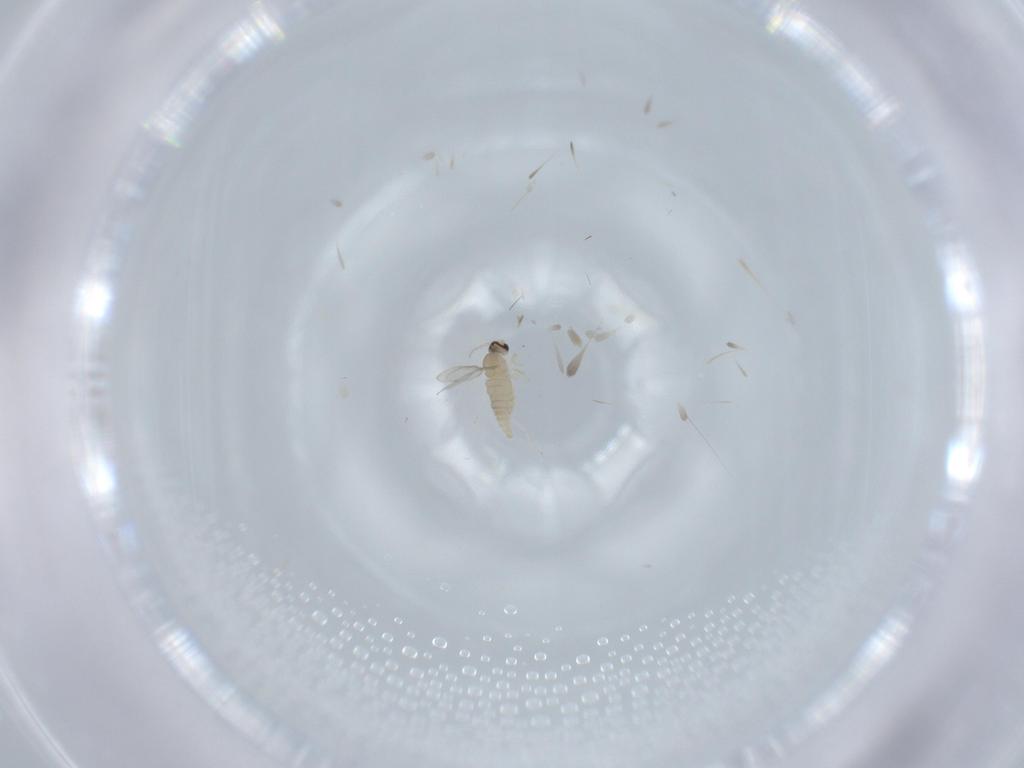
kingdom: Animalia
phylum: Arthropoda
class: Insecta
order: Diptera
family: Cecidomyiidae
